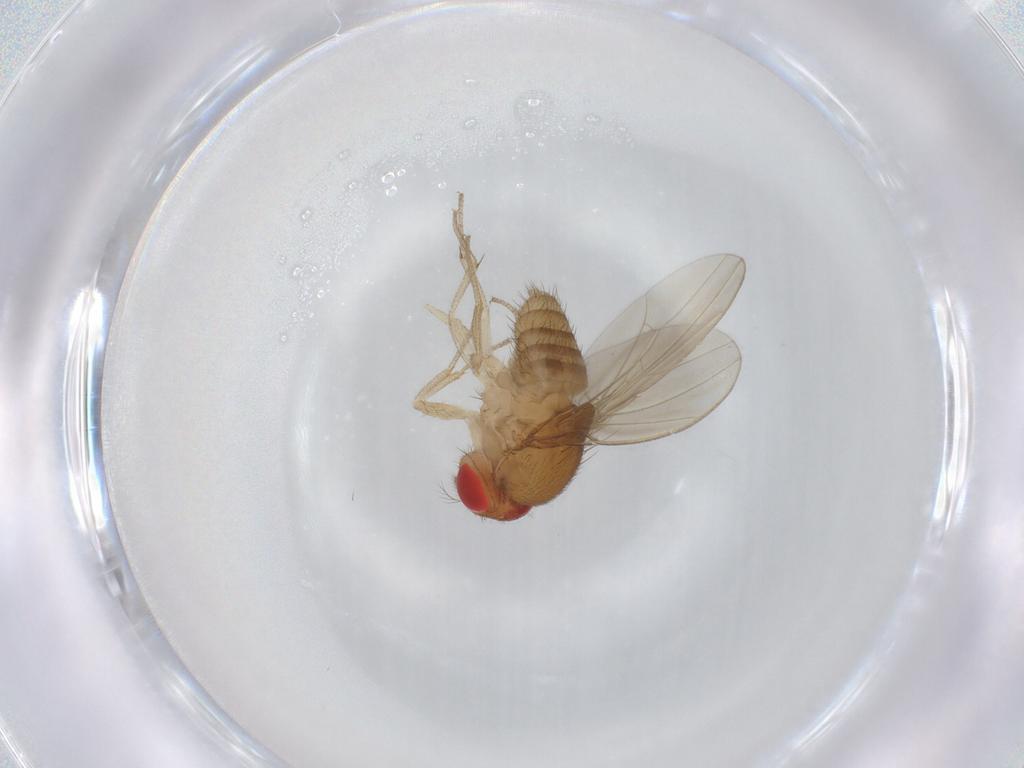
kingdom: Animalia
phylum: Arthropoda
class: Insecta
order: Diptera
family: Drosophilidae
